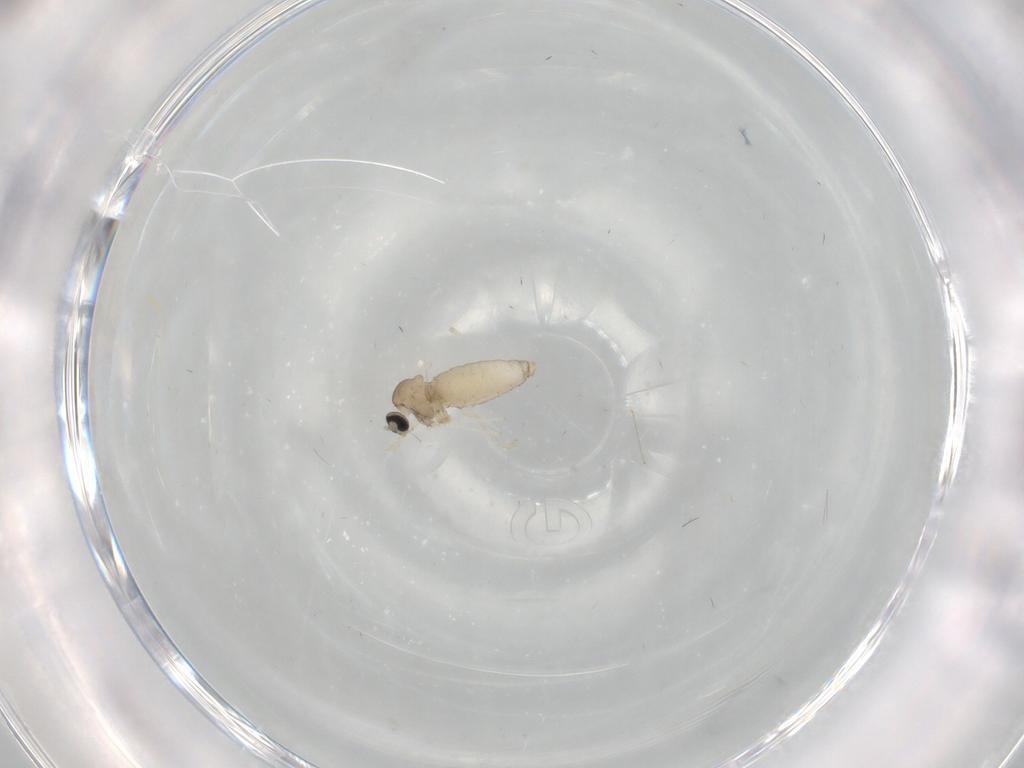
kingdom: Animalia
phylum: Arthropoda
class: Insecta
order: Diptera
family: Cecidomyiidae
